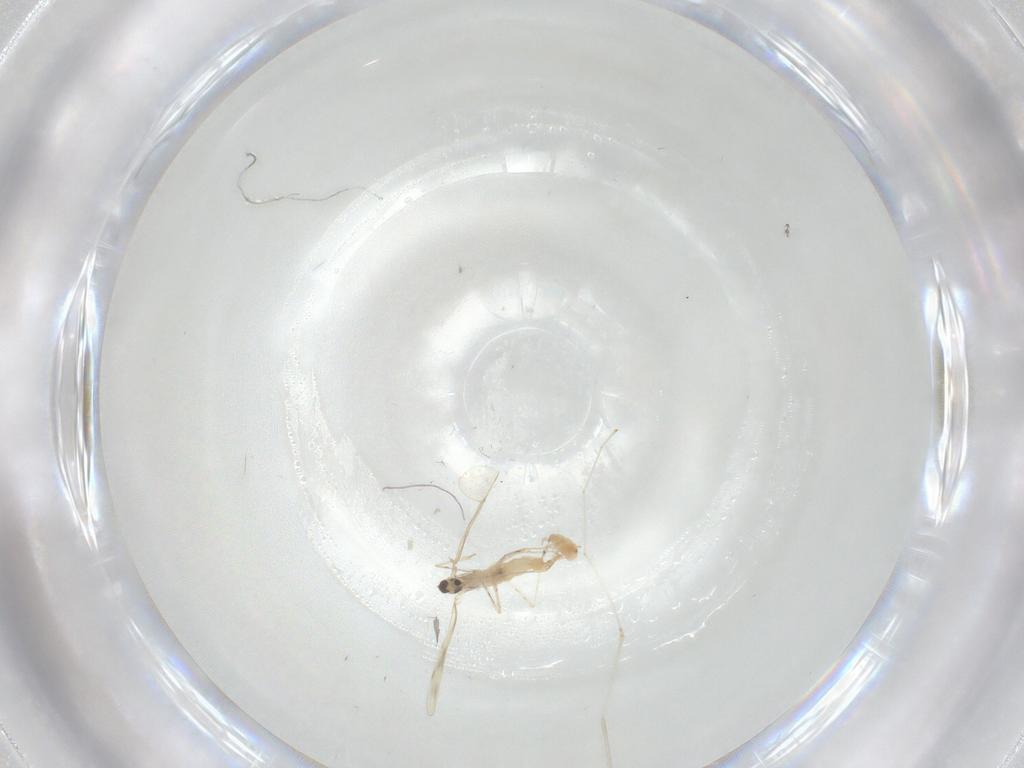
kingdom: Animalia
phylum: Arthropoda
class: Insecta
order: Diptera
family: Cecidomyiidae
